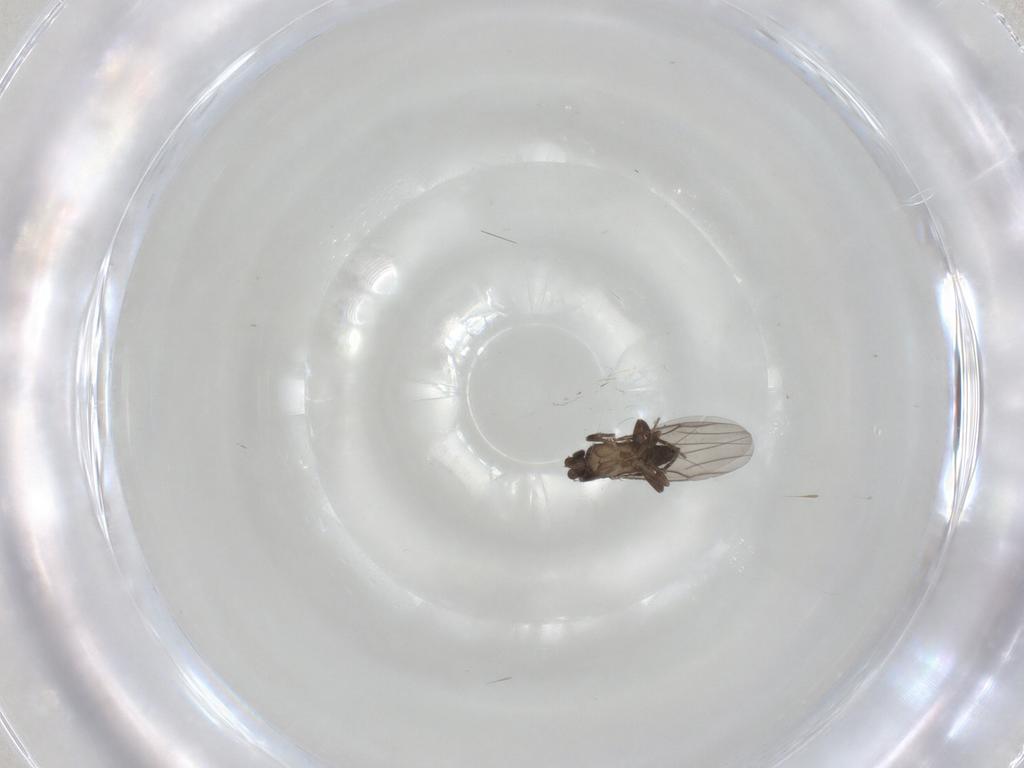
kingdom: Animalia
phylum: Arthropoda
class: Insecta
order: Diptera
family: Phoridae
